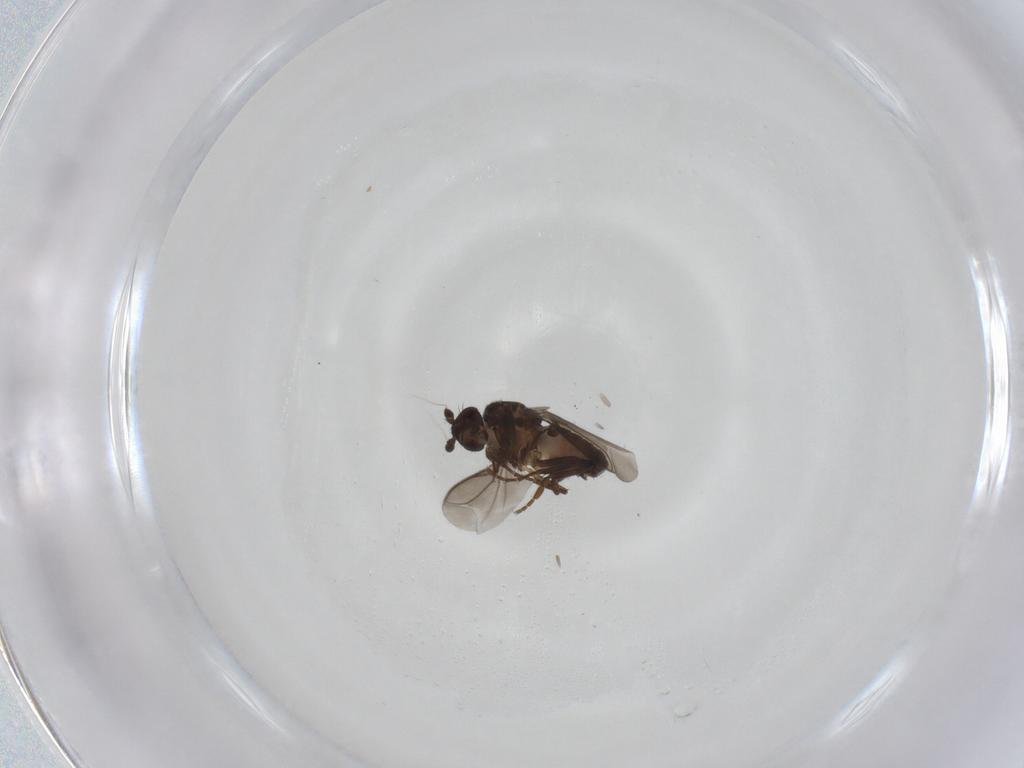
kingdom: Animalia
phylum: Arthropoda
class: Insecta
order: Diptera
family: Sphaeroceridae
